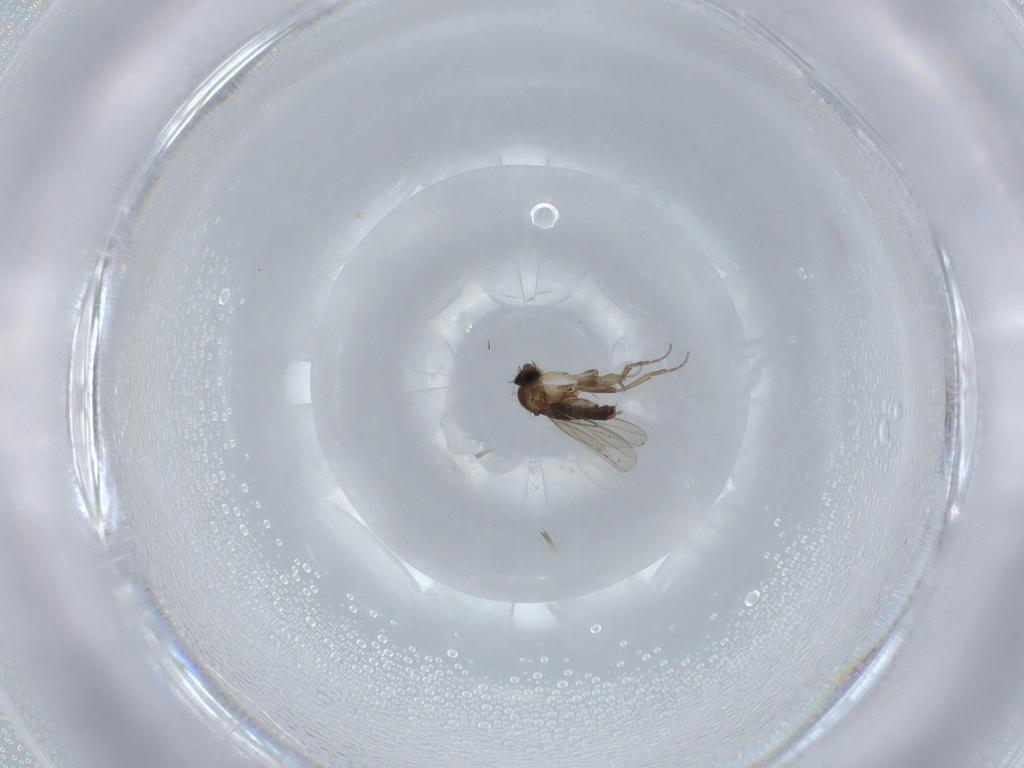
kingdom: Animalia
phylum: Arthropoda
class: Insecta
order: Diptera
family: Phoridae
